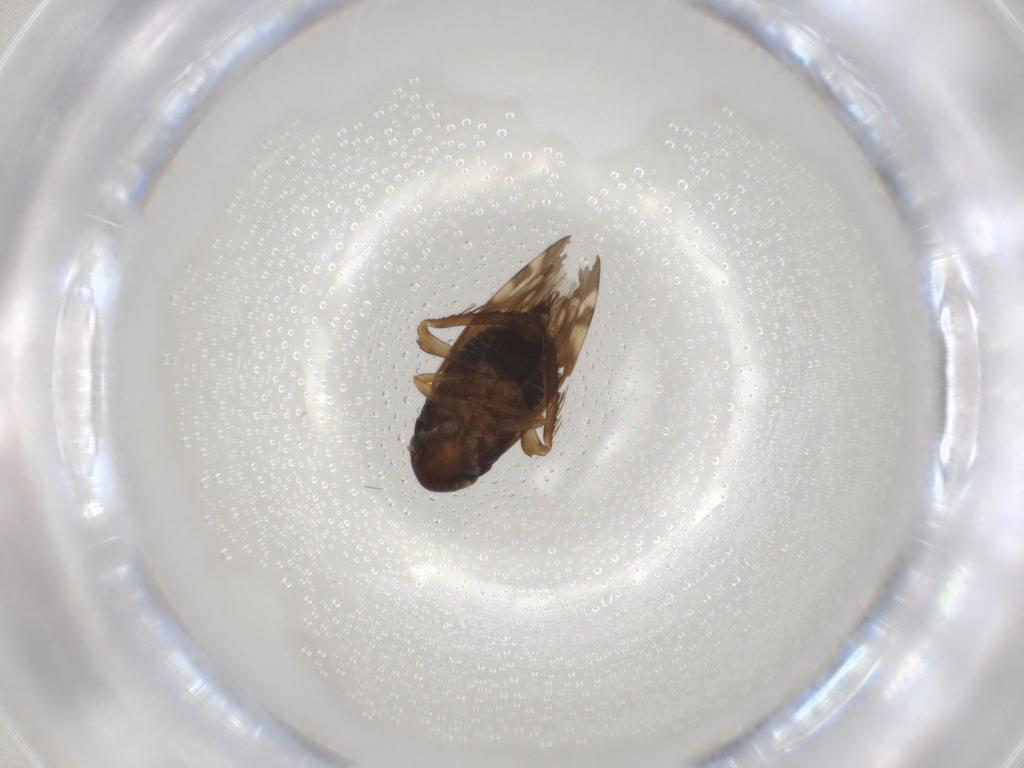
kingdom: Animalia
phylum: Arthropoda
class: Insecta
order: Hemiptera
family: Cicadellidae
